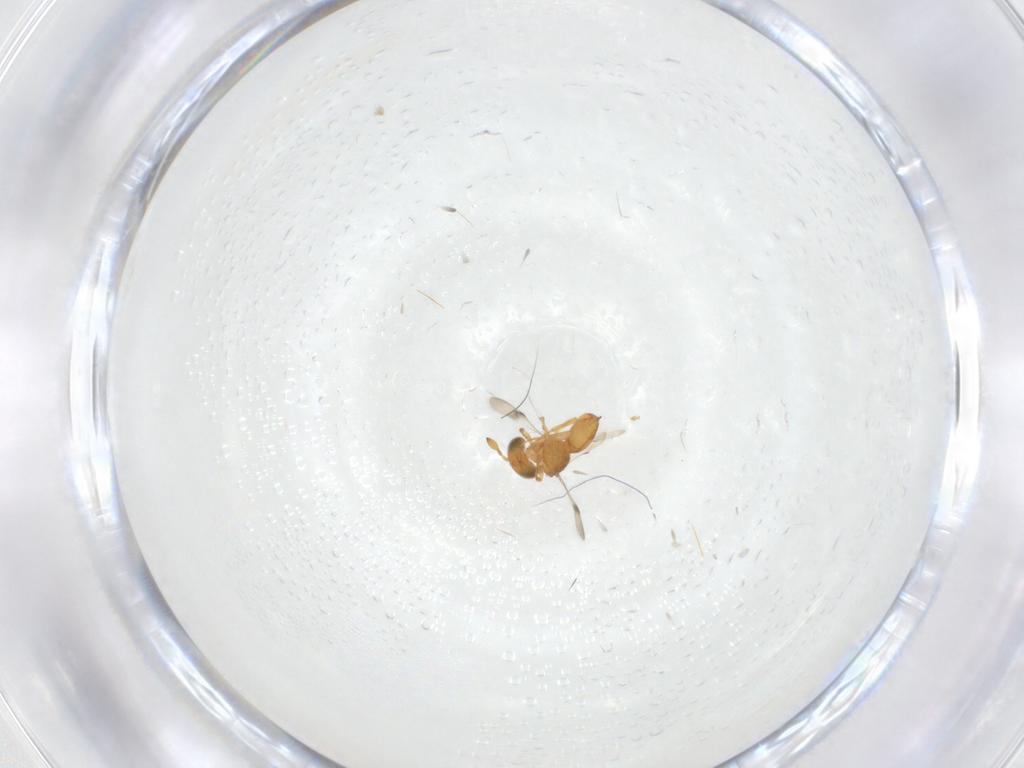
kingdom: Animalia
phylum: Arthropoda
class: Insecta
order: Hymenoptera
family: Scelionidae
